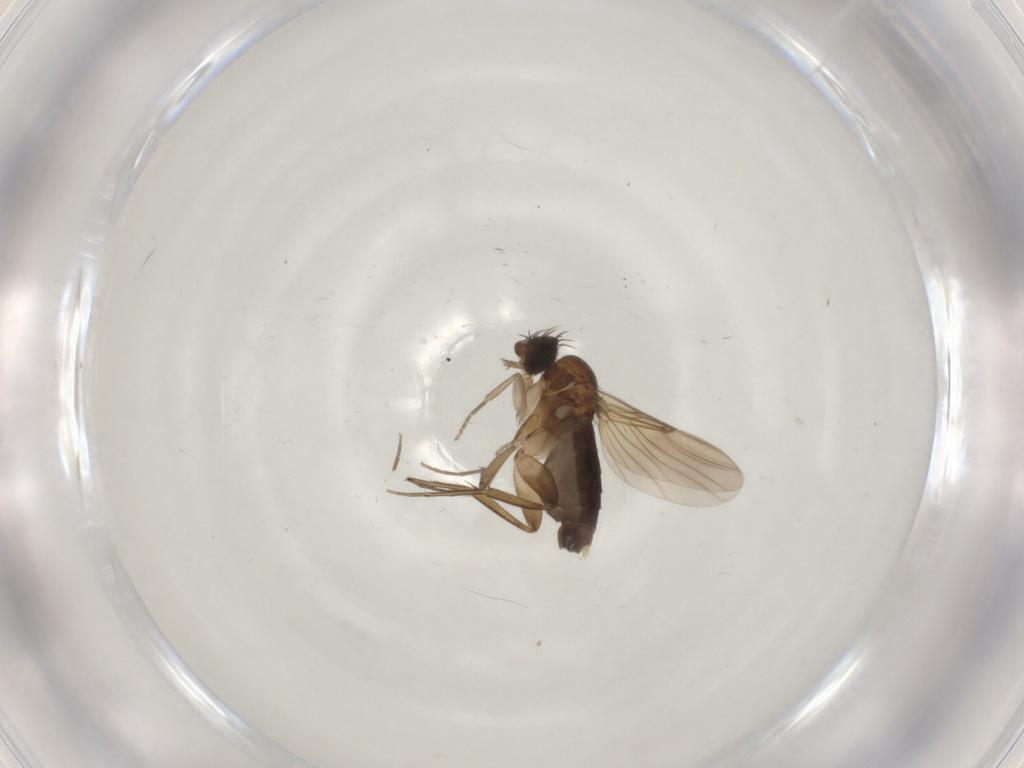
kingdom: Animalia
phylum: Arthropoda
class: Insecta
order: Diptera
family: Phoridae
